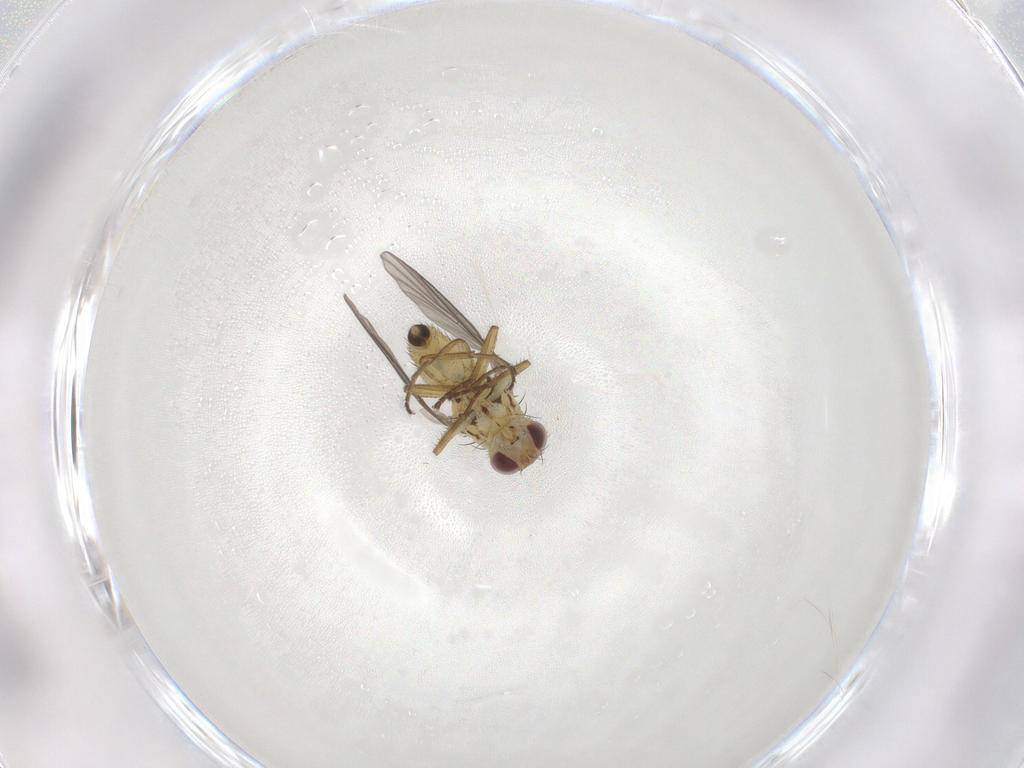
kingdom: Animalia
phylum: Arthropoda
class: Insecta
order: Diptera
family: Agromyzidae
